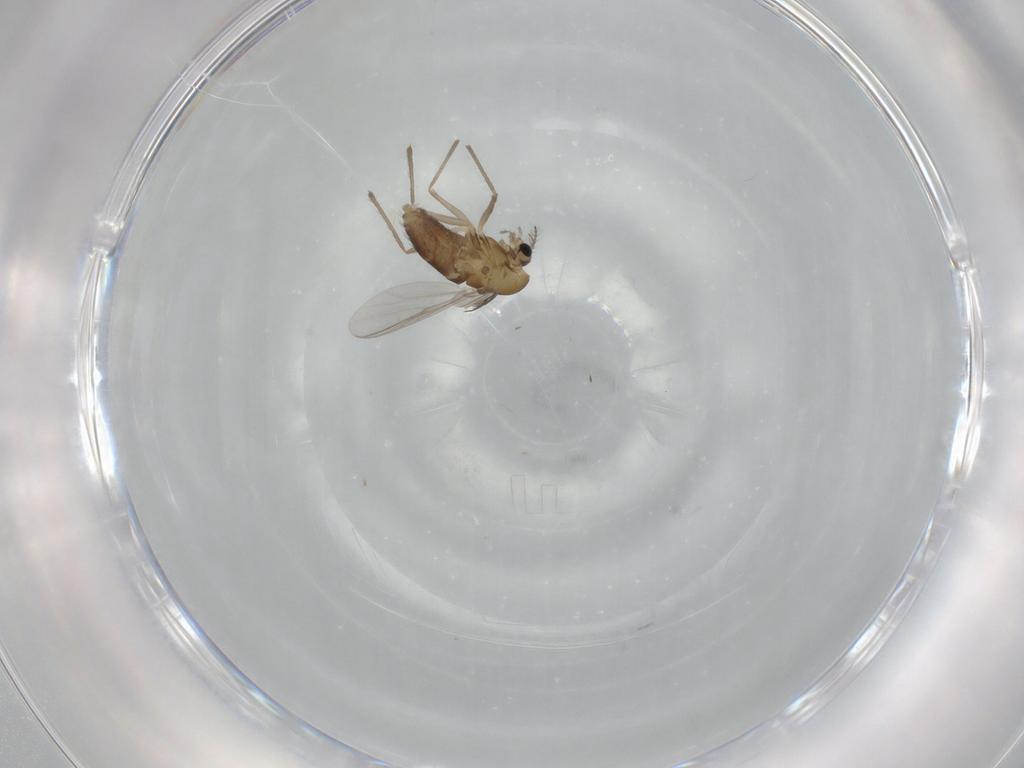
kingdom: Animalia
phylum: Arthropoda
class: Insecta
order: Diptera
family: Chironomidae
